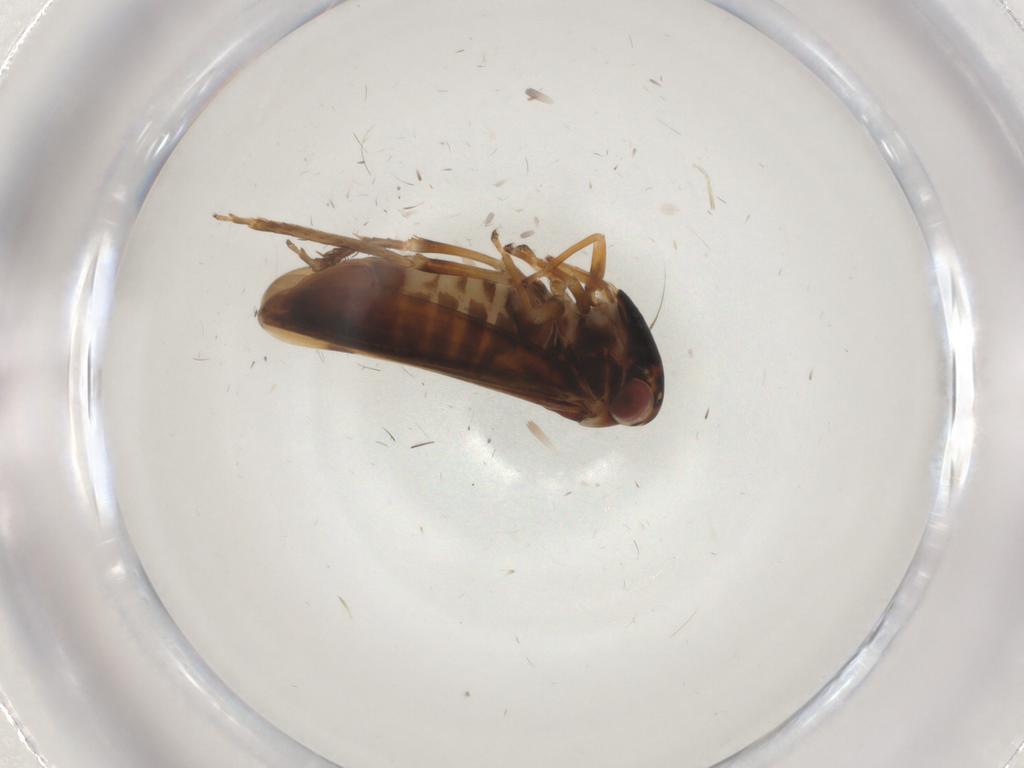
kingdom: Animalia
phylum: Arthropoda
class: Insecta
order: Hemiptera
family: Cicadellidae
